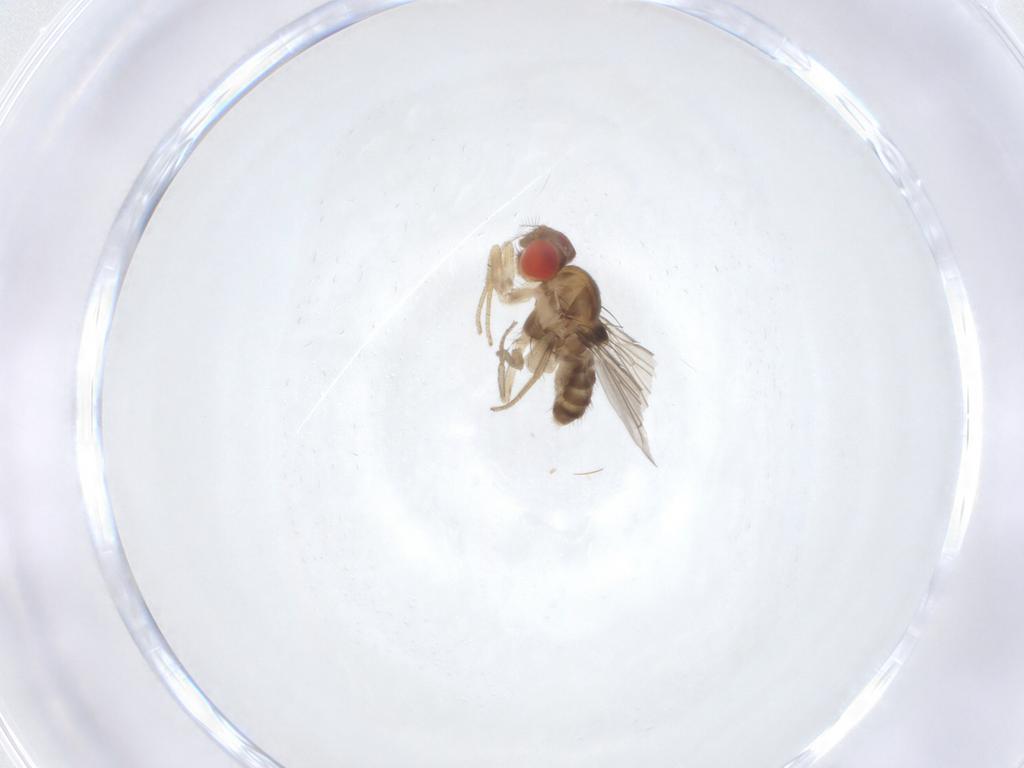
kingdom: Animalia
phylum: Arthropoda
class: Insecta
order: Diptera
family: Drosophilidae
